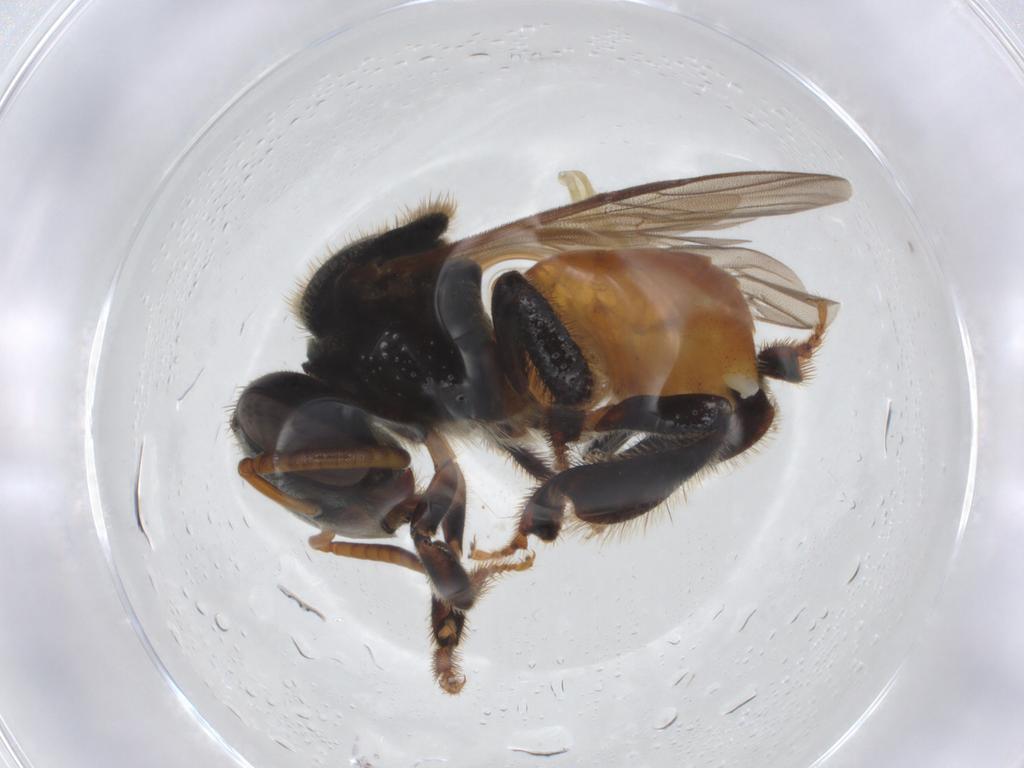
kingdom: Animalia
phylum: Arthropoda
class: Insecta
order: Hymenoptera
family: Apidae
